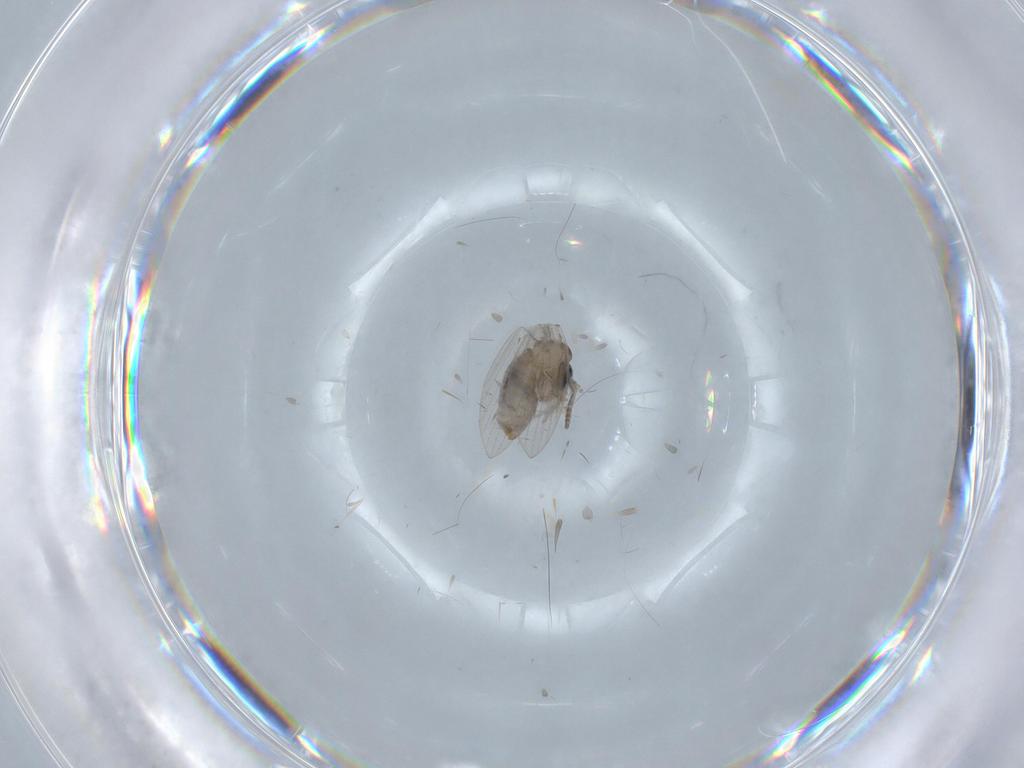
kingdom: Animalia
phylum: Arthropoda
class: Insecta
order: Diptera
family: Psychodidae
